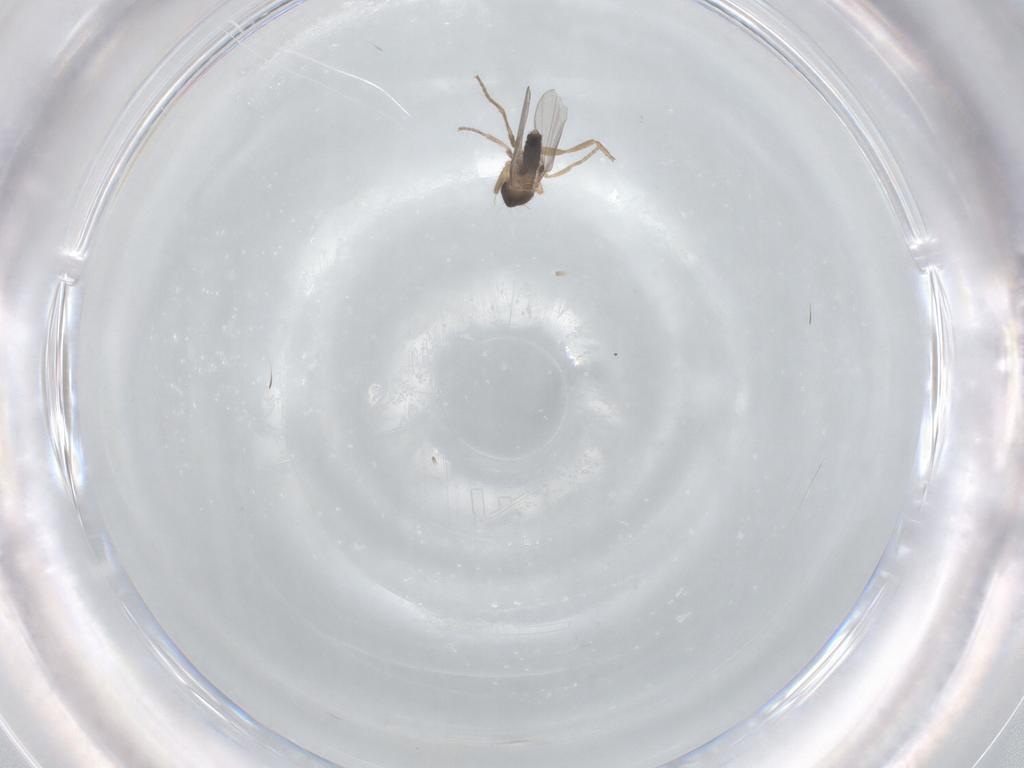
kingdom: Animalia
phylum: Arthropoda
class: Insecta
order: Diptera
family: Phoridae
